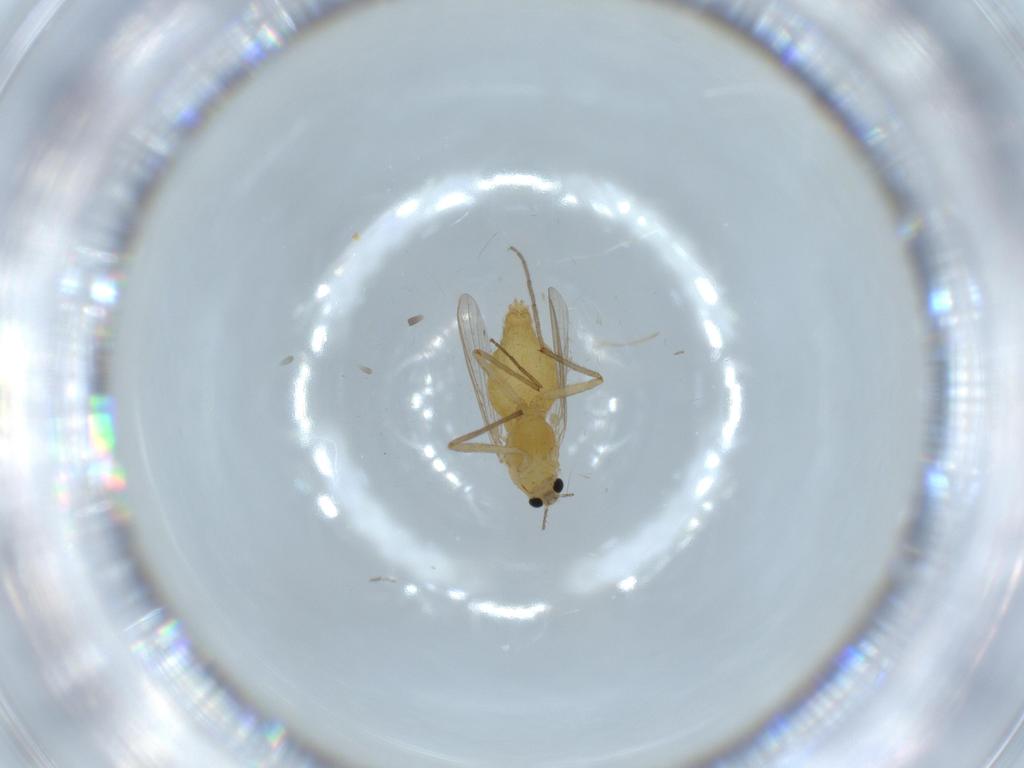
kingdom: Animalia
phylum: Arthropoda
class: Insecta
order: Diptera
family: Chironomidae
